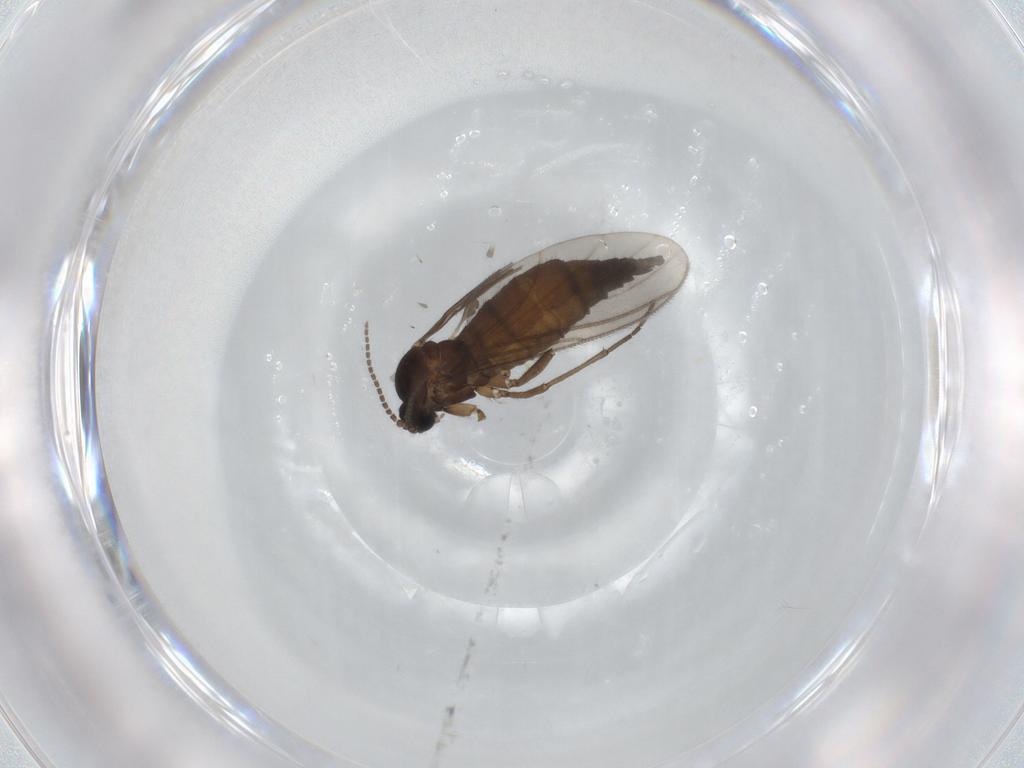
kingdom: Animalia
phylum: Arthropoda
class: Insecta
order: Diptera
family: Sciaridae
